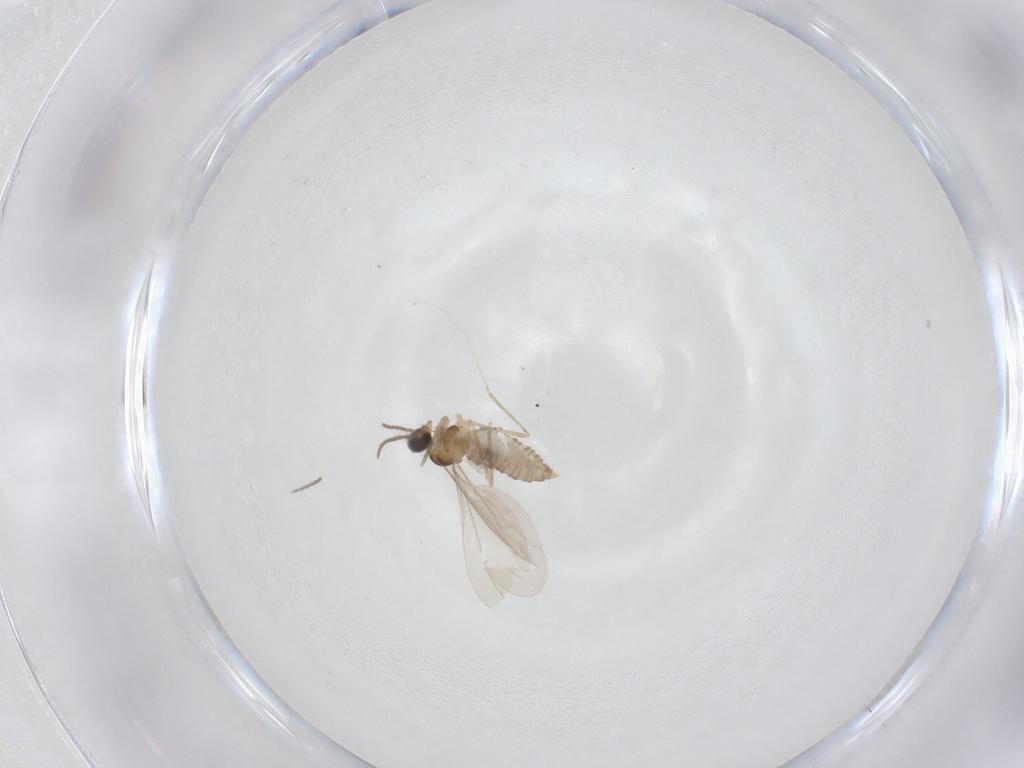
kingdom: Animalia
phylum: Arthropoda
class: Insecta
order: Diptera
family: Cecidomyiidae
